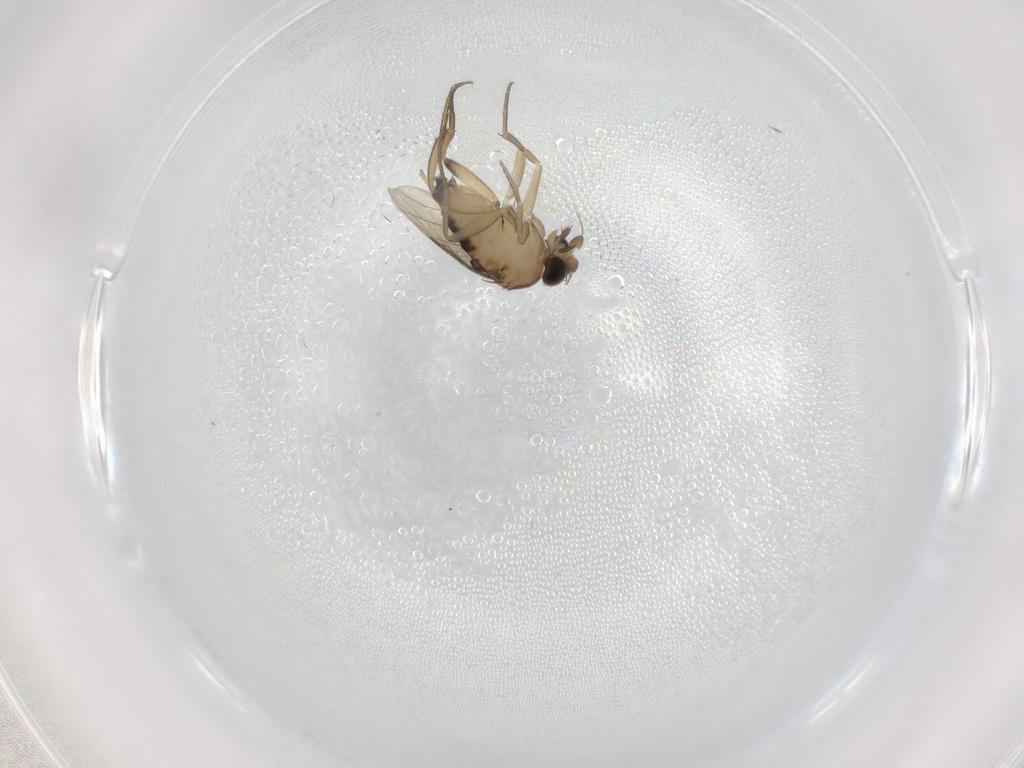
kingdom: Animalia
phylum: Arthropoda
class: Insecta
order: Diptera
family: Phoridae
